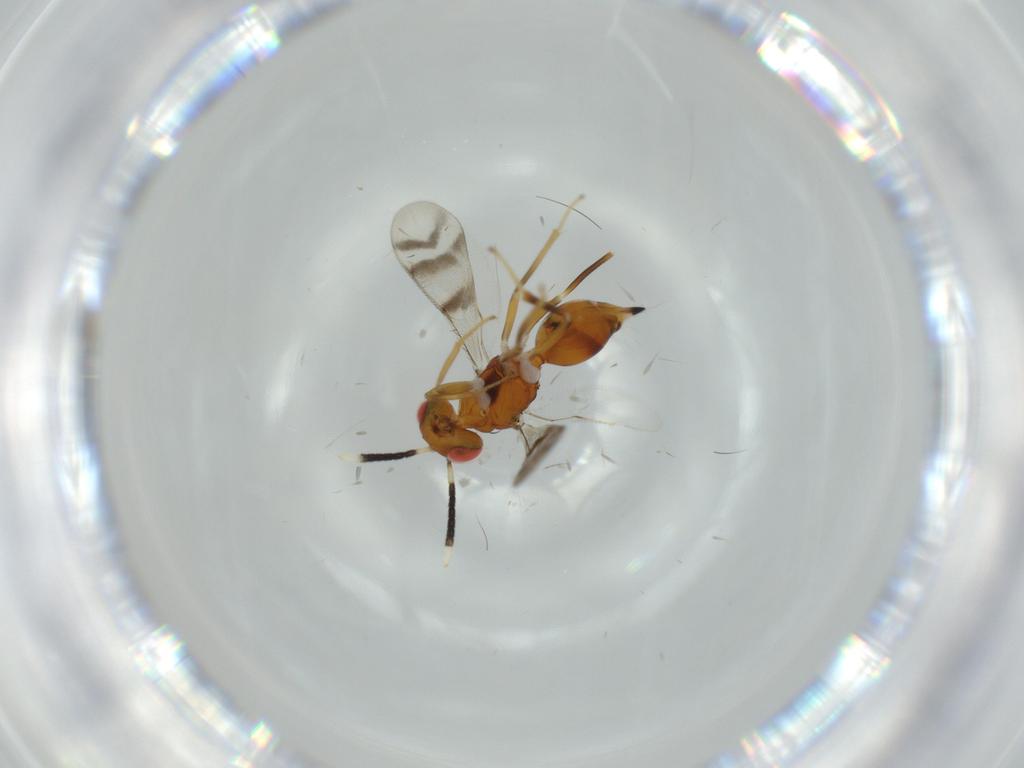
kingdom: Animalia
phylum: Arthropoda
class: Insecta
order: Hymenoptera
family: Diparidae
